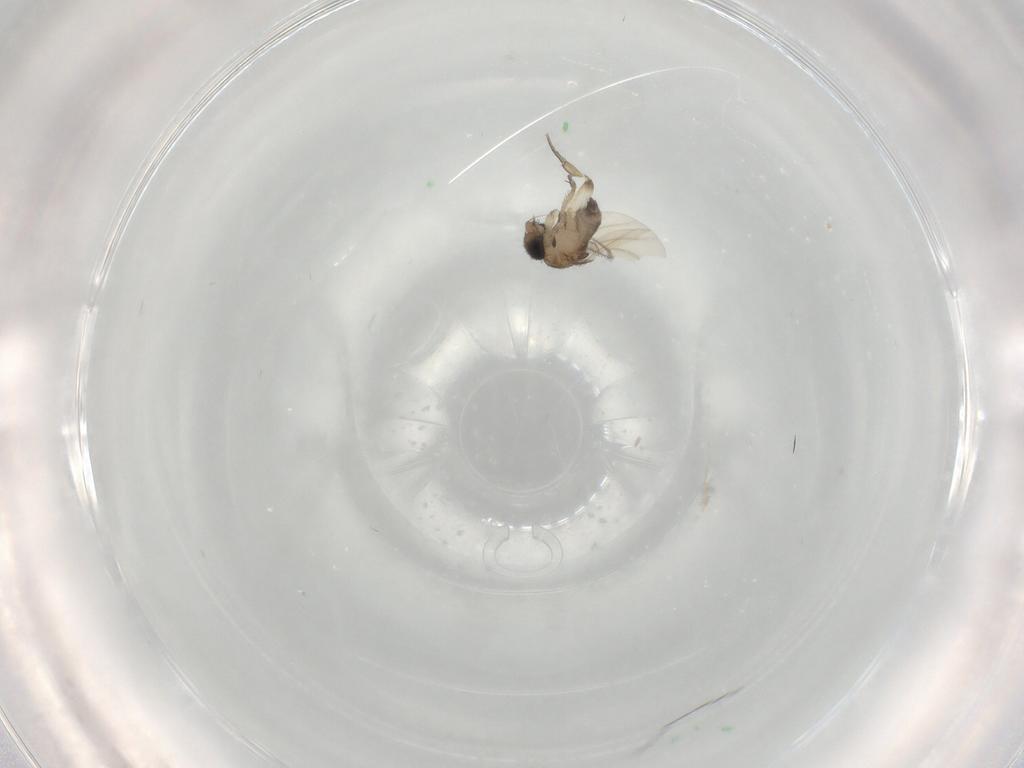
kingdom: Animalia
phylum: Arthropoda
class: Insecta
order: Diptera
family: Phoridae
